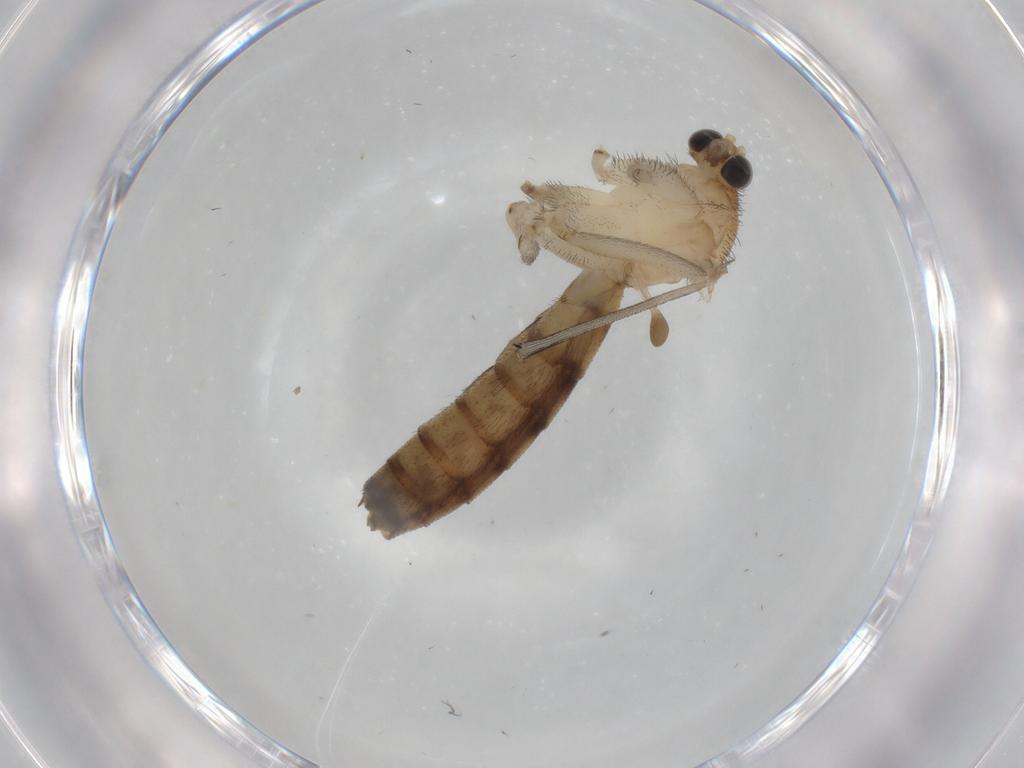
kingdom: Animalia
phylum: Arthropoda
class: Insecta
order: Diptera
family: Keroplatidae
